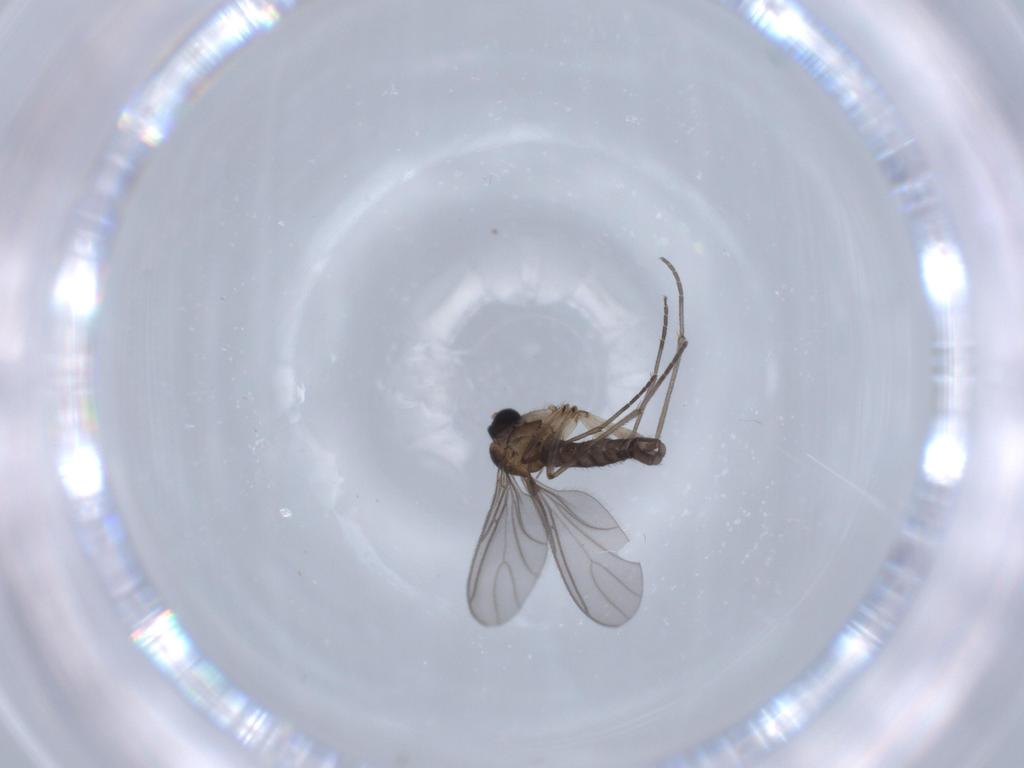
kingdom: Animalia
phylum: Arthropoda
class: Insecta
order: Diptera
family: Sciaridae
